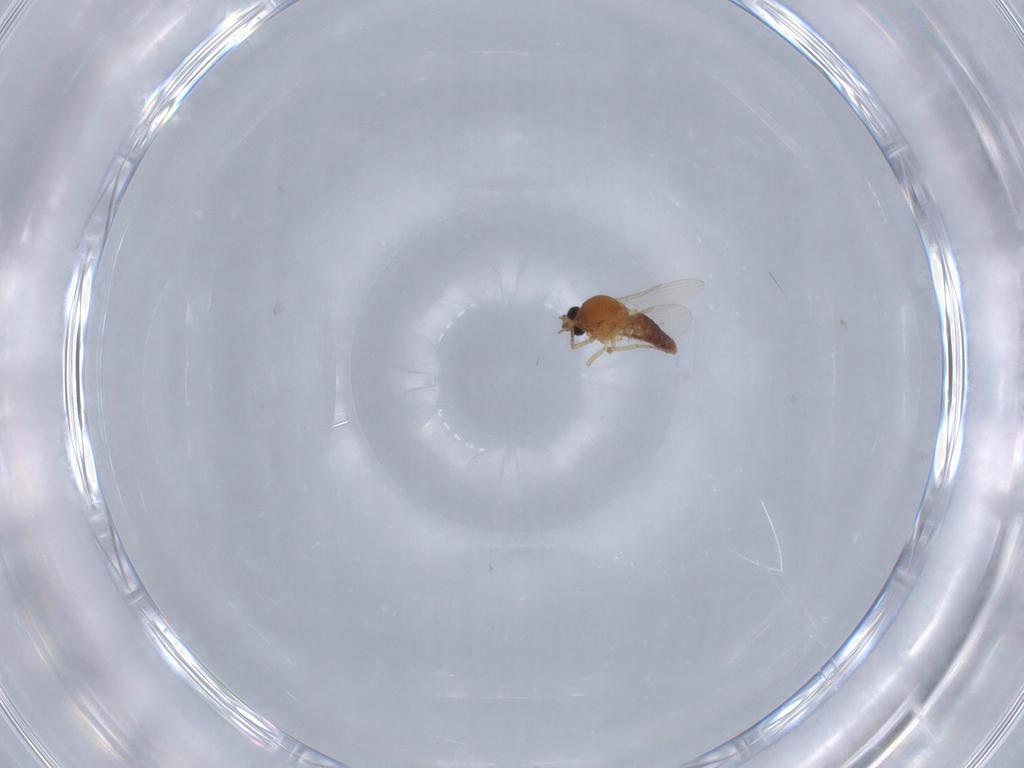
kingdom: Animalia
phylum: Arthropoda
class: Insecta
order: Diptera
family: Ceratopogonidae
